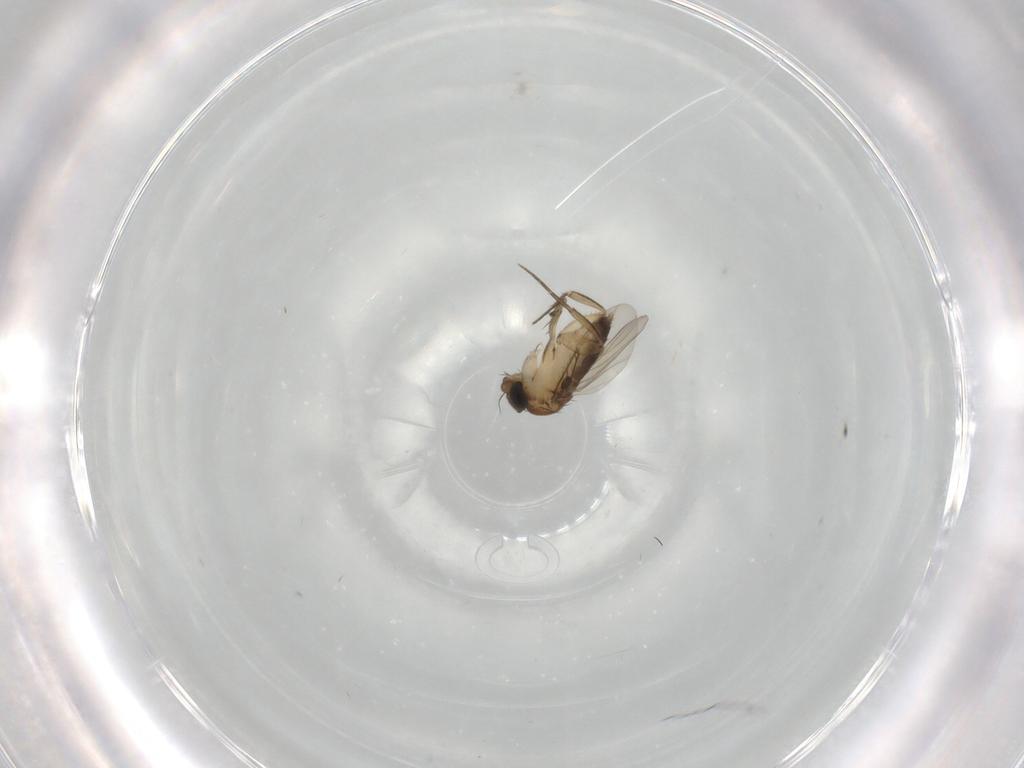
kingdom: Animalia
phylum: Arthropoda
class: Insecta
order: Diptera
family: Phoridae
